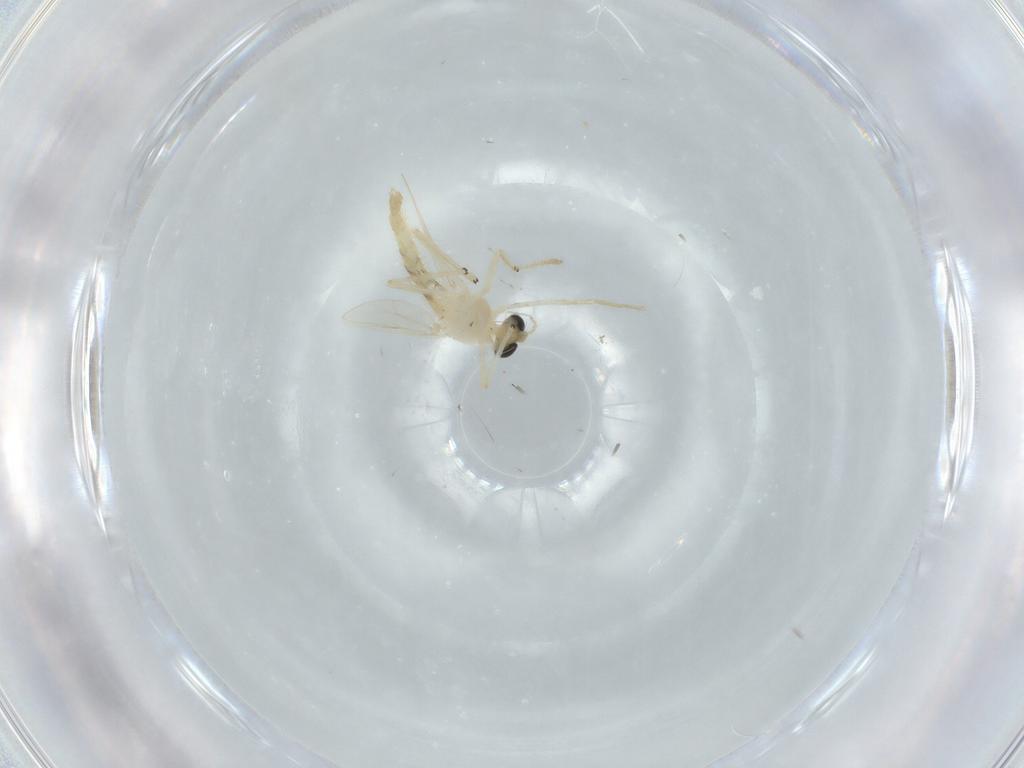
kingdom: Animalia
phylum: Arthropoda
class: Insecta
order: Diptera
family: Chironomidae
